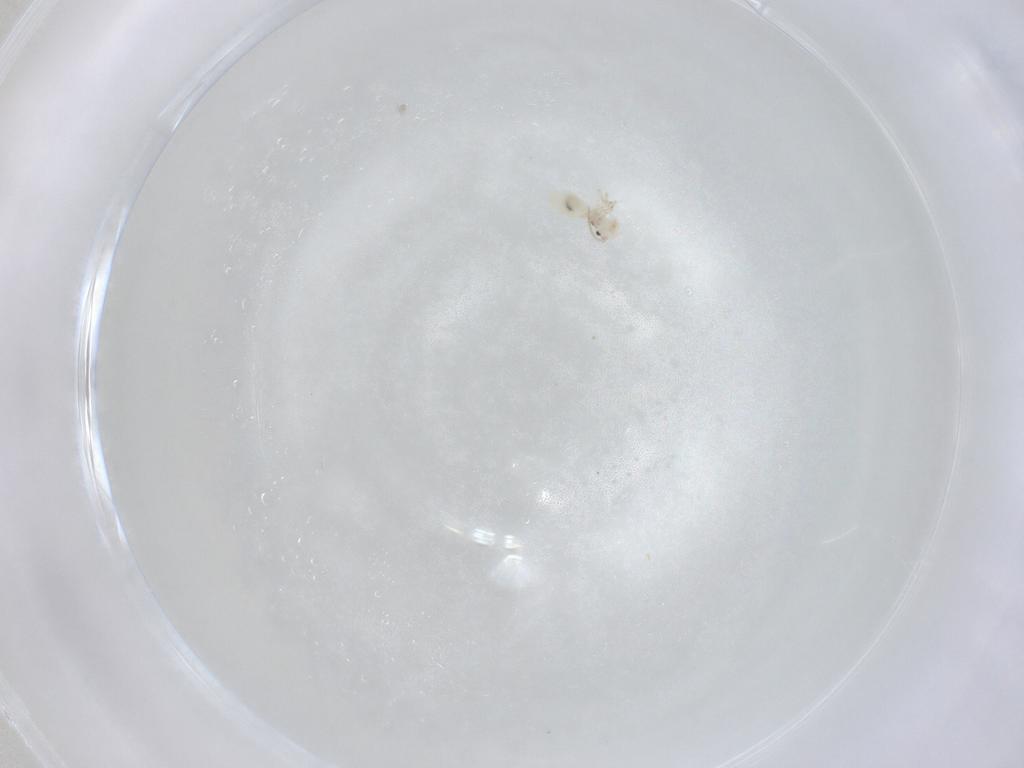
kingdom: Animalia
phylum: Arthropoda
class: Insecta
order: Psocodea
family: Caeciliusidae
